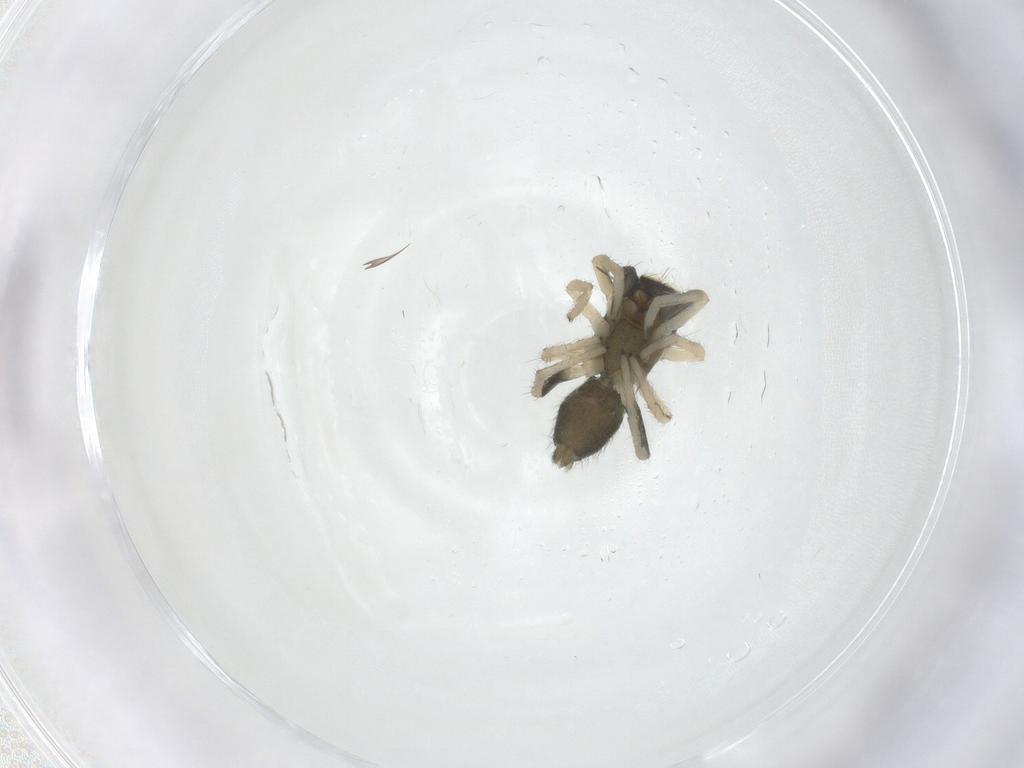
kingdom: Animalia
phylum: Arthropoda
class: Arachnida
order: Araneae
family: Salticidae
